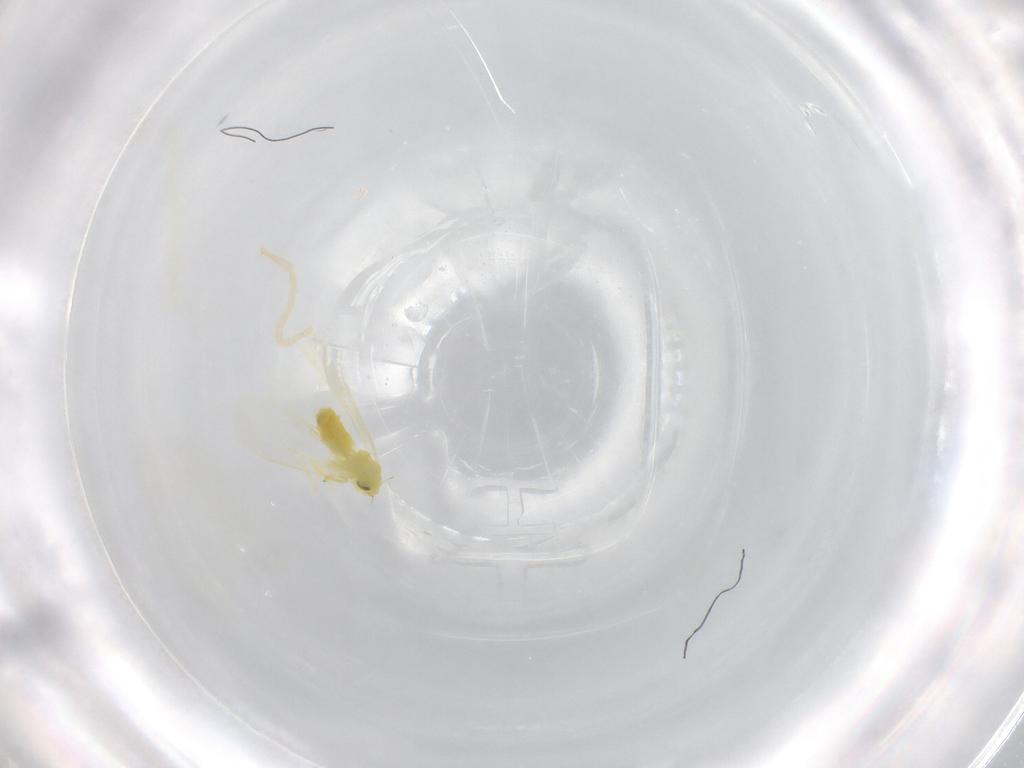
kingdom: Animalia
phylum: Arthropoda
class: Insecta
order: Hemiptera
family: Aleyrodidae
